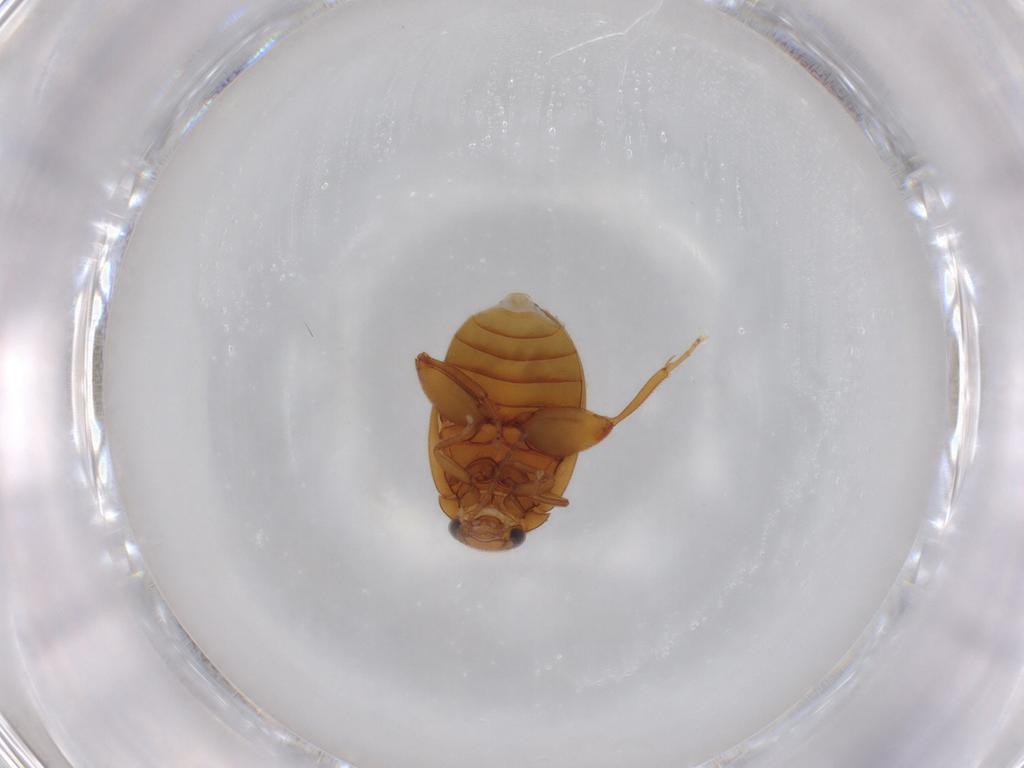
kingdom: Animalia
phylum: Arthropoda
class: Insecta
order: Coleoptera
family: Scirtidae
